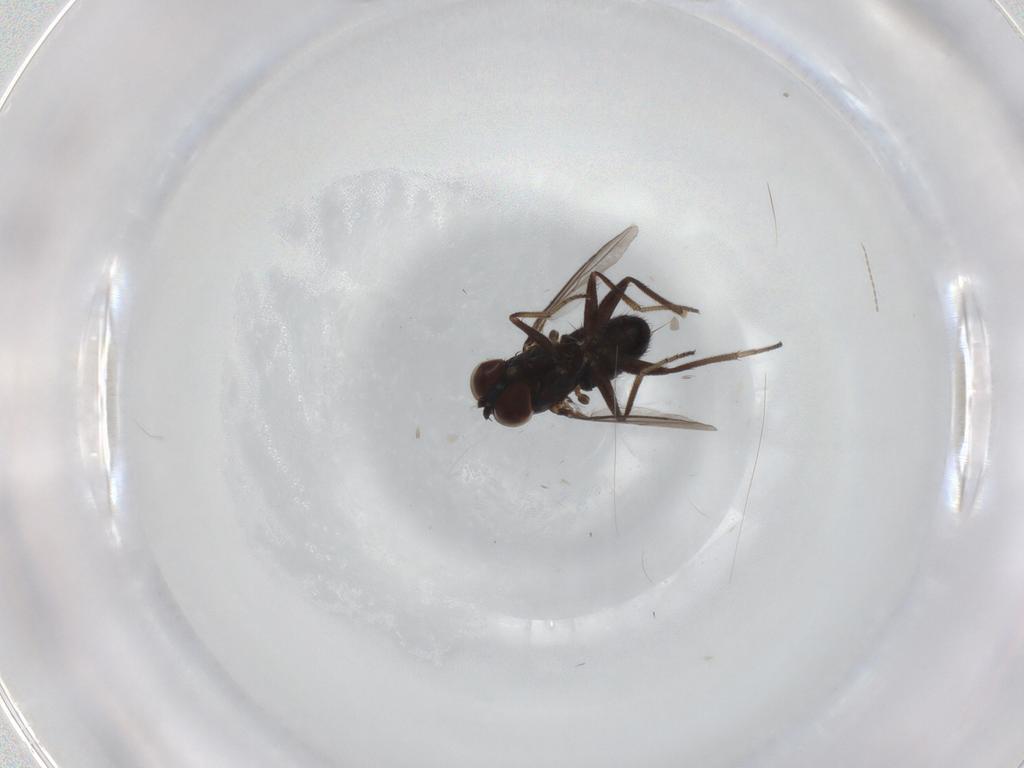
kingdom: Animalia
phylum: Arthropoda
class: Insecta
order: Diptera
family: Dolichopodidae
